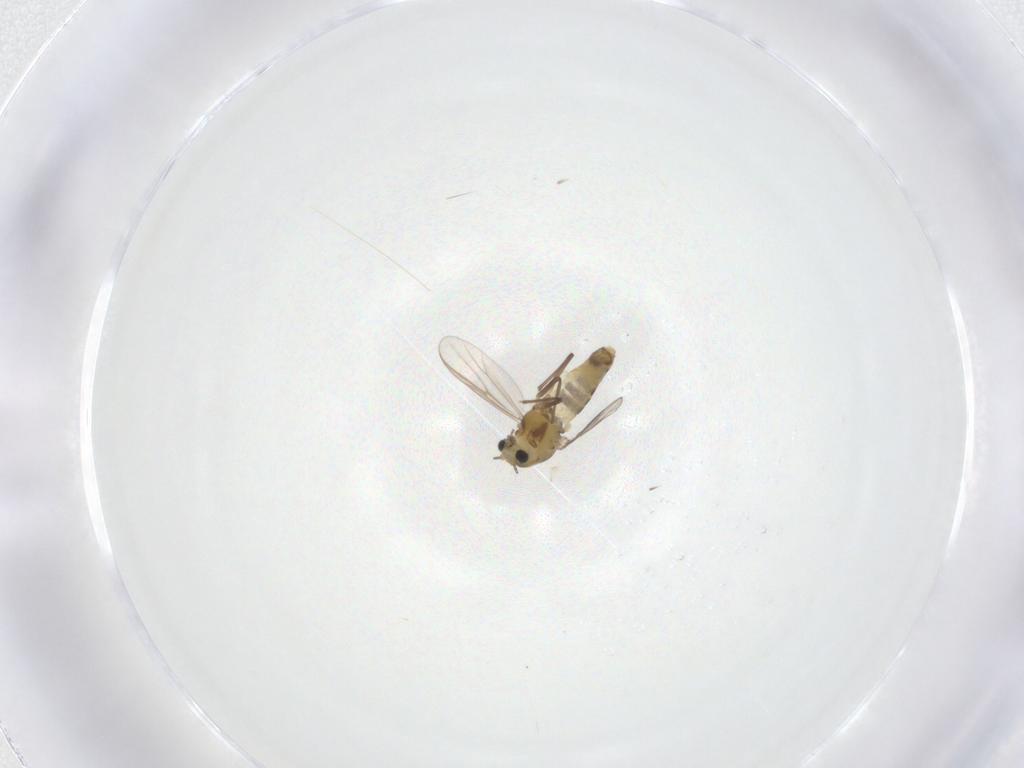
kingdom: Animalia
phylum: Arthropoda
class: Insecta
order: Diptera
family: Chironomidae
